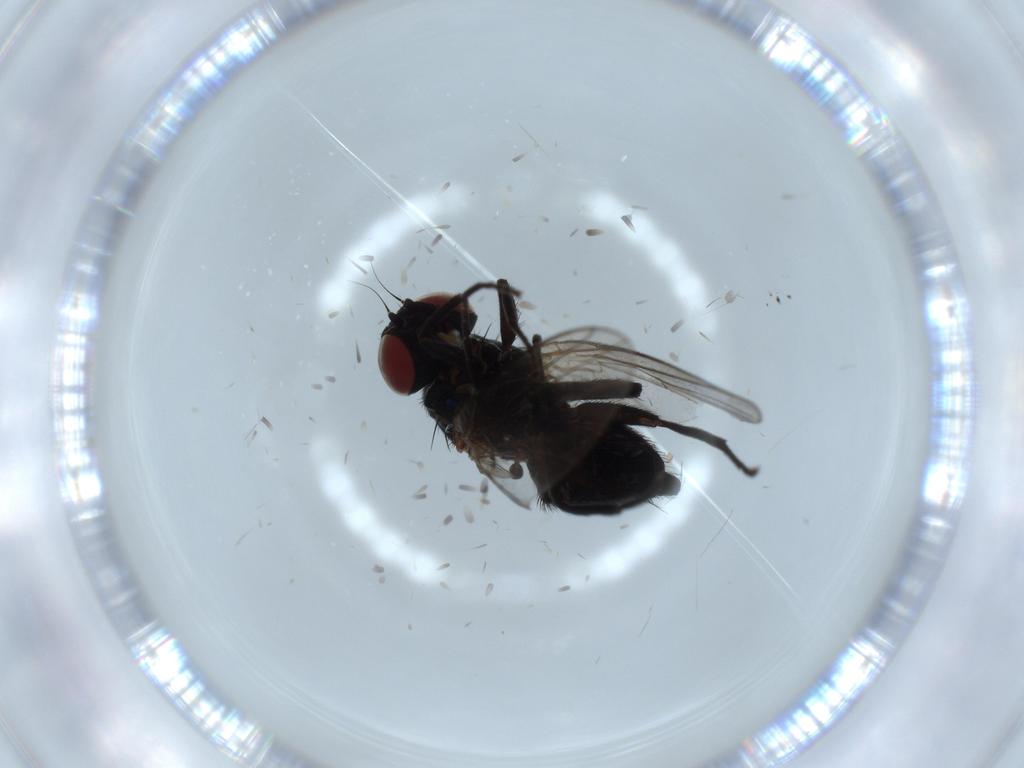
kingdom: Animalia
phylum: Arthropoda
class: Insecta
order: Diptera
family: Agromyzidae
